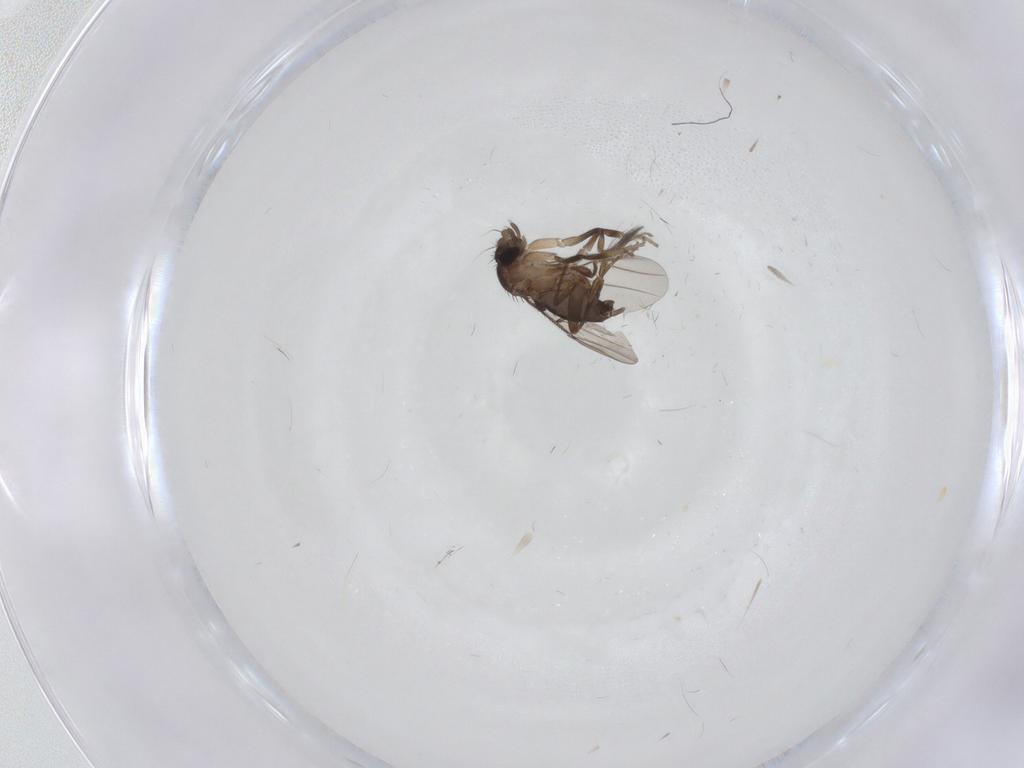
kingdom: Animalia
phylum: Arthropoda
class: Insecta
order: Diptera
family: Phoridae
